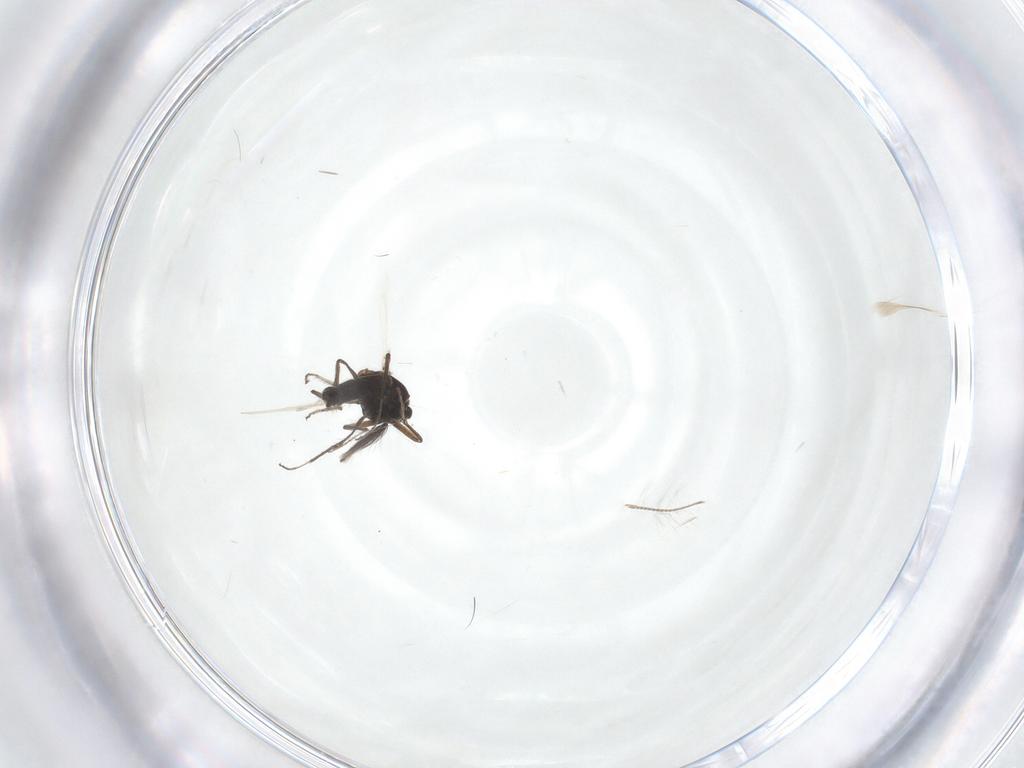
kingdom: Animalia
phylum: Arthropoda
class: Insecta
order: Diptera
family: Ceratopogonidae
